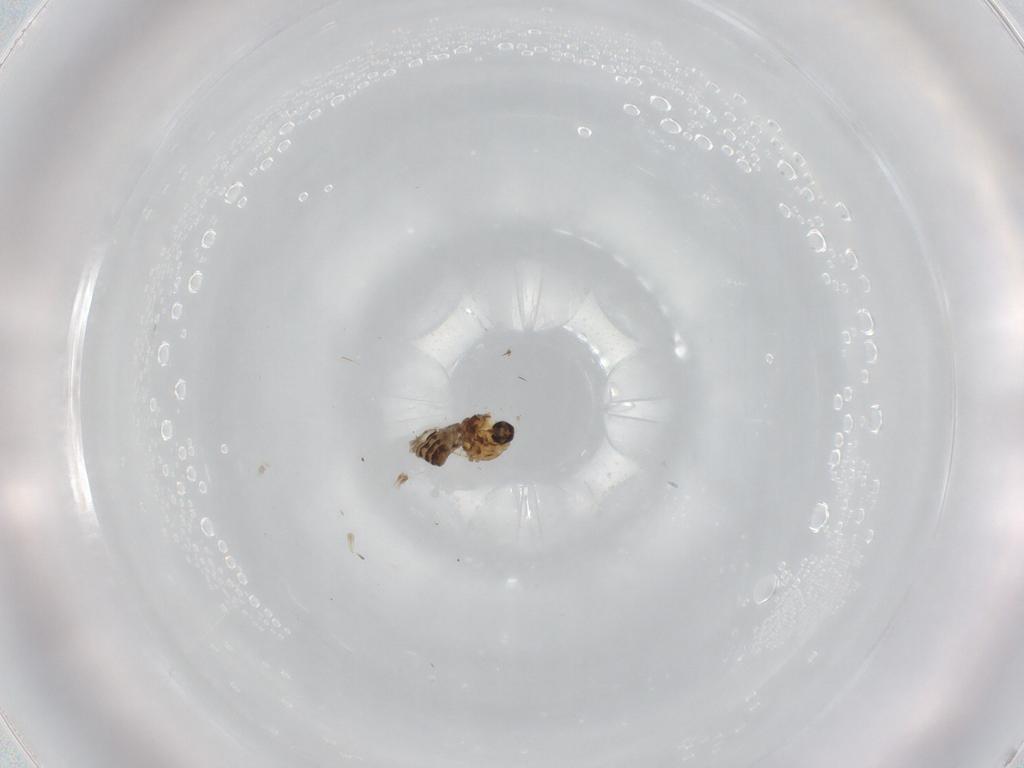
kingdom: Animalia
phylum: Arthropoda
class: Insecta
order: Diptera
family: Ceratopogonidae
